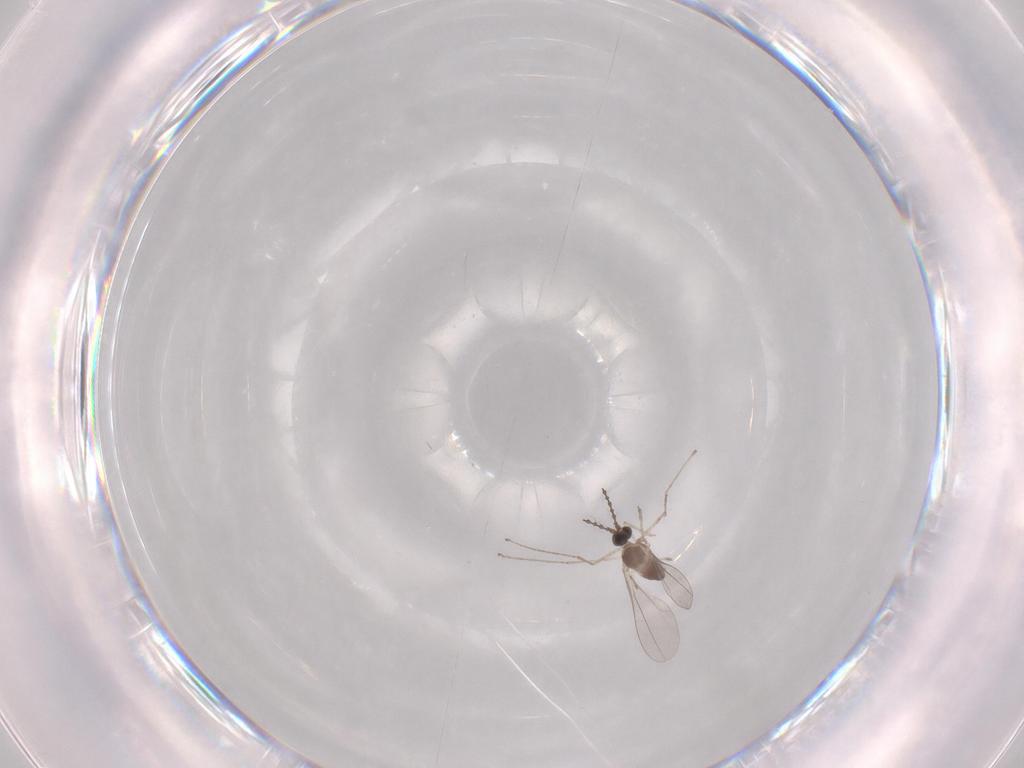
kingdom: Animalia
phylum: Arthropoda
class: Insecta
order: Diptera
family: Cecidomyiidae
